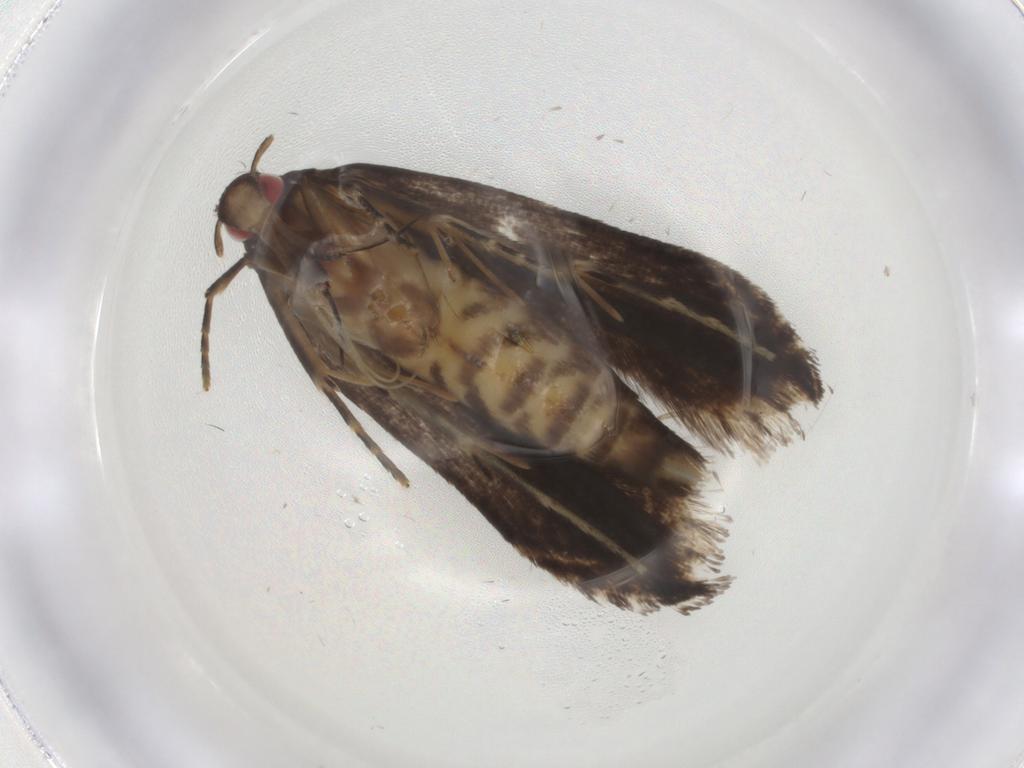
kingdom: Animalia
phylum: Arthropoda
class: Insecta
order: Lepidoptera
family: Gelechiidae
